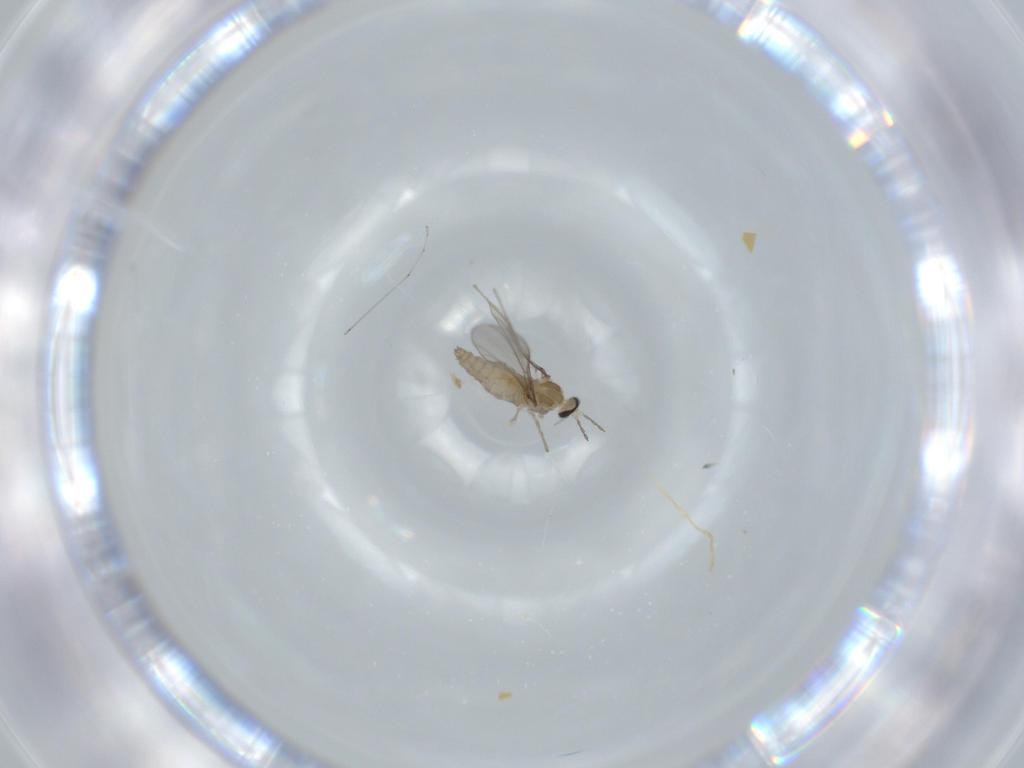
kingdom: Animalia
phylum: Arthropoda
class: Insecta
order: Diptera
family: Cecidomyiidae
